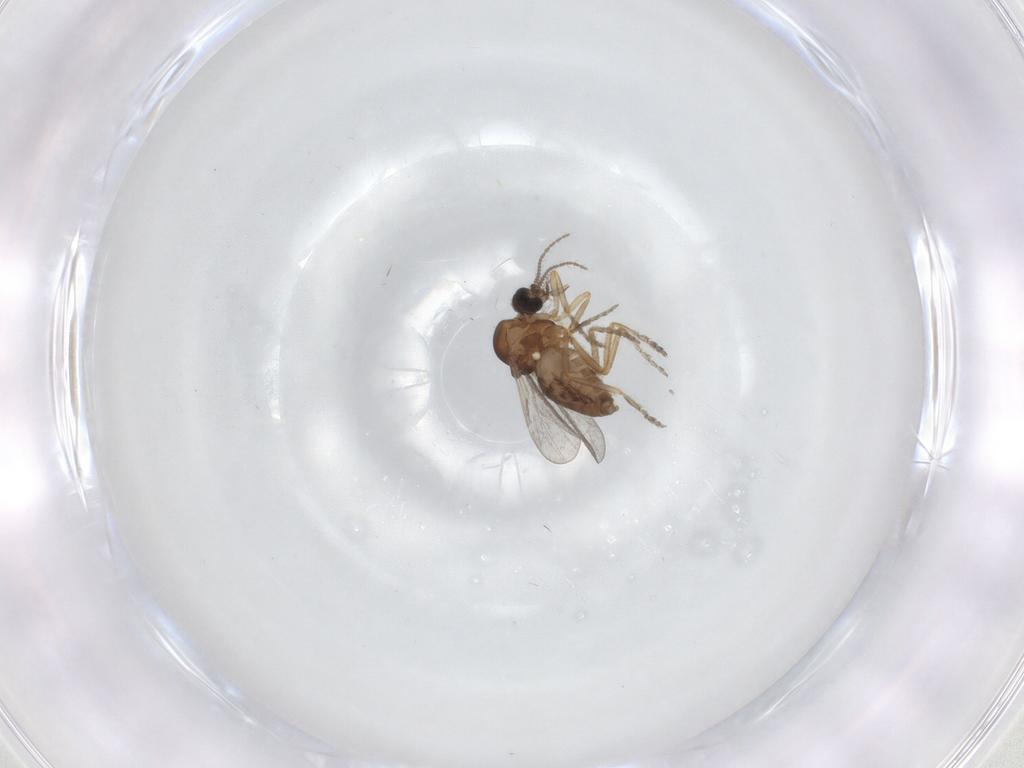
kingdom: Animalia
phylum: Arthropoda
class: Insecta
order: Diptera
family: Ceratopogonidae
